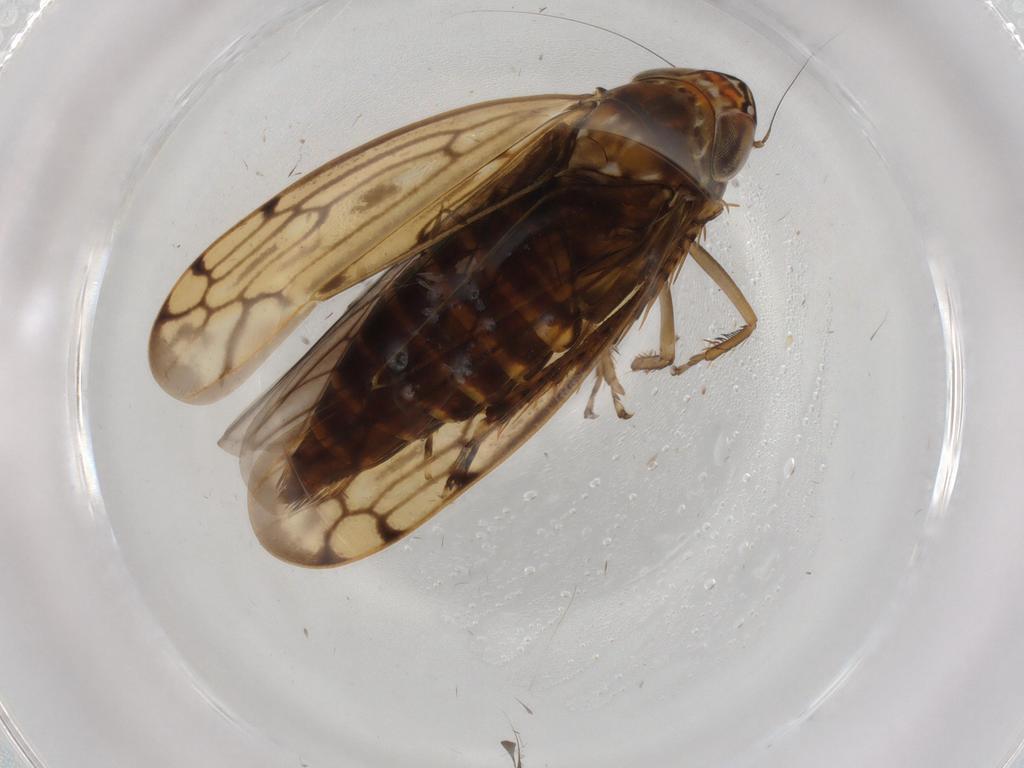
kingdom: Animalia
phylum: Arthropoda
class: Insecta
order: Hemiptera
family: Cicadellidae
